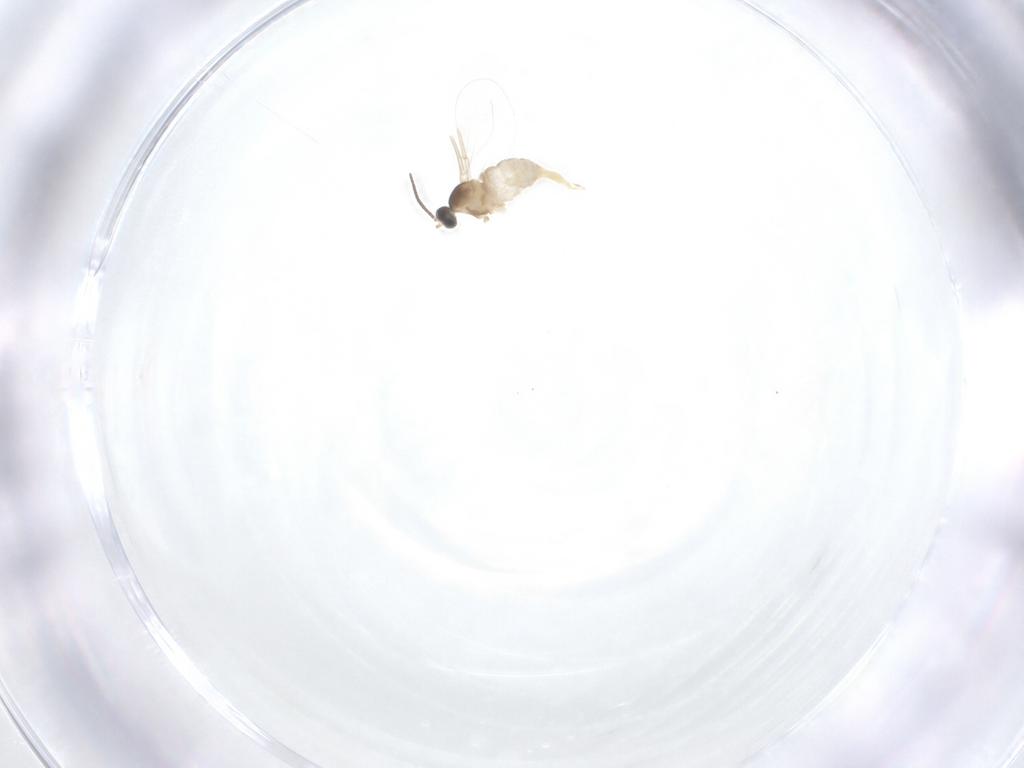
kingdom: Animalia
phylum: Arthropoda
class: Insecta
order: Diptera
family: Cecidomyiidae
